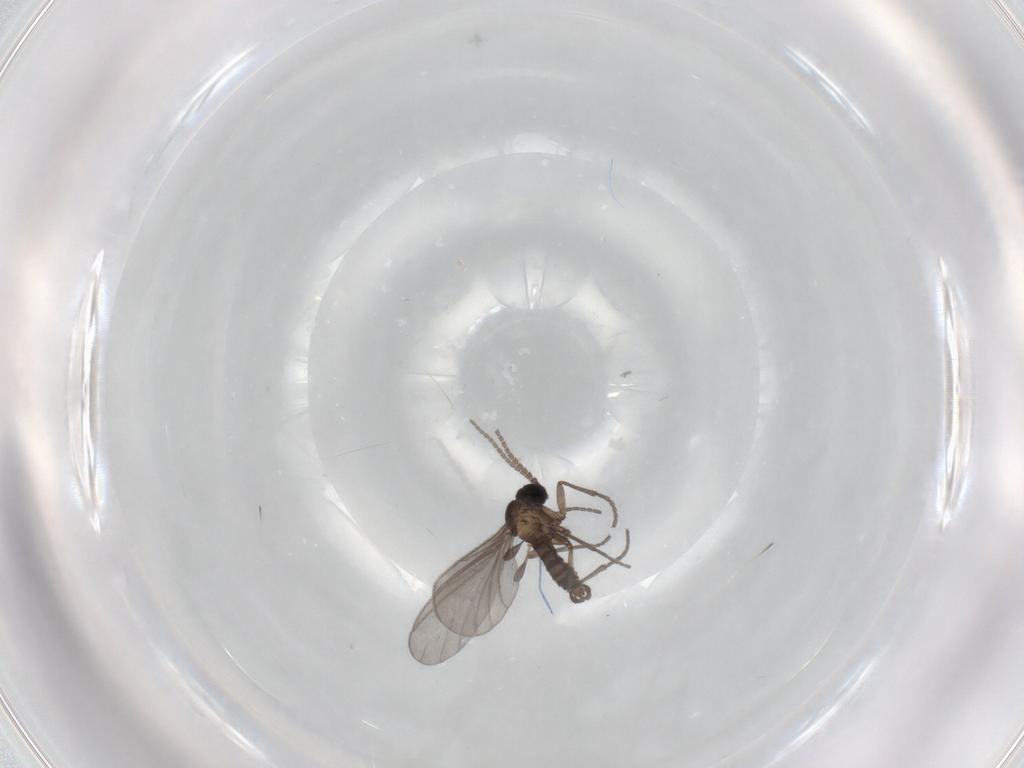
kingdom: Animalia
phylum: Arthropoda
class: Insecta
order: Diptera
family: Sciaridae
